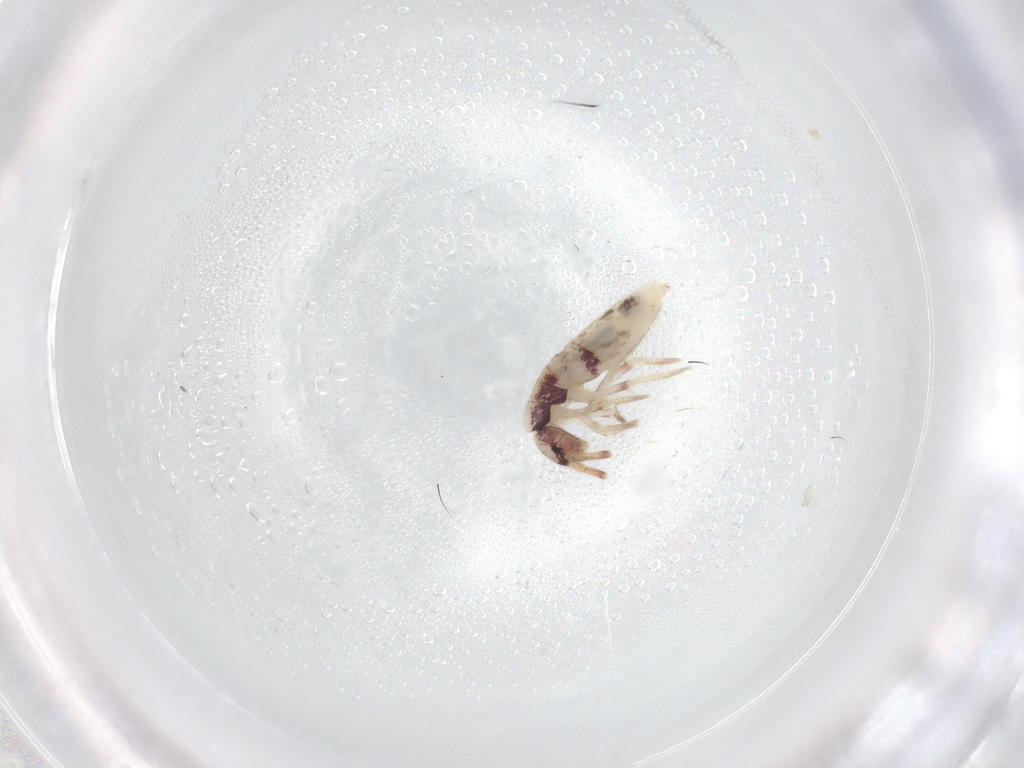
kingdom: Animalia
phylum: Arthropoda
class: Collembola
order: Entomobryomorpha
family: Entomobryidae
